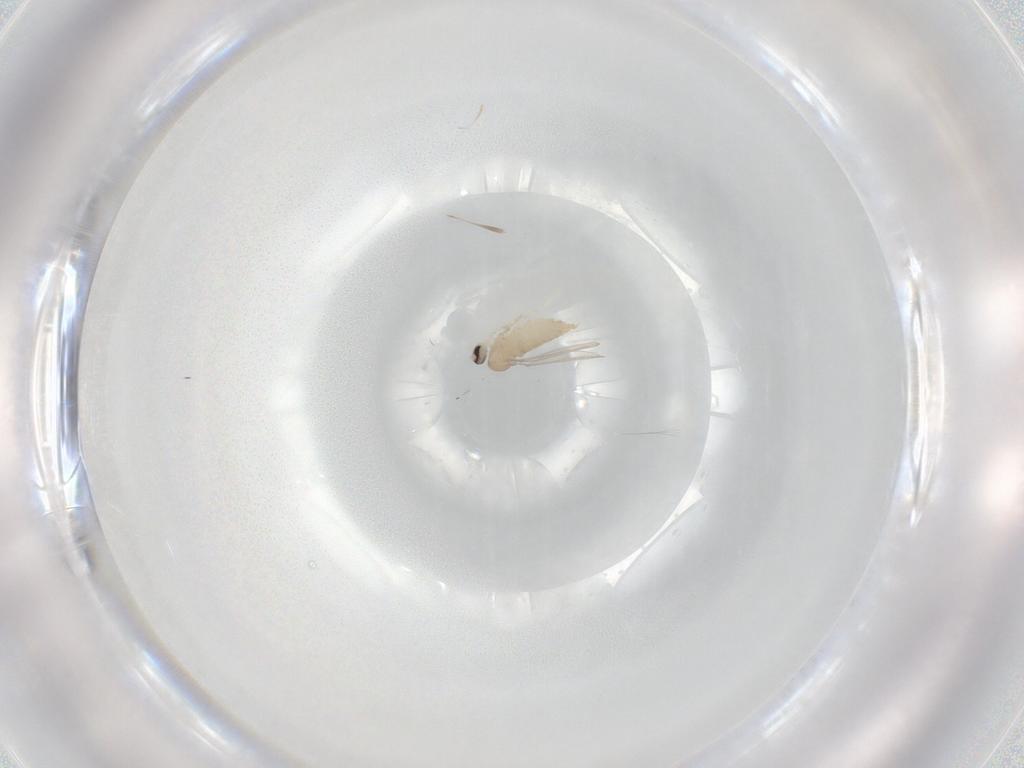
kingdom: Animalia
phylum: Arthropoda
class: Insecta
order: Diptera
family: Cecidomyiidae
